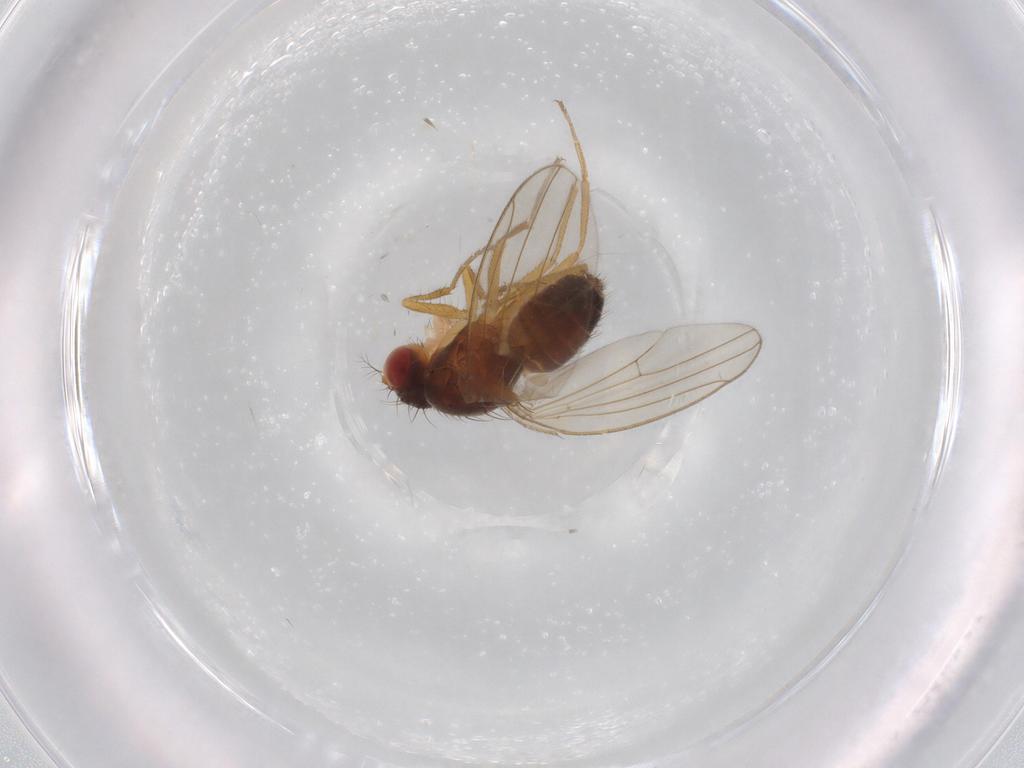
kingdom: Animalia
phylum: Arthropoda
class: Insecta
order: Diptera
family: Drosophilidae
